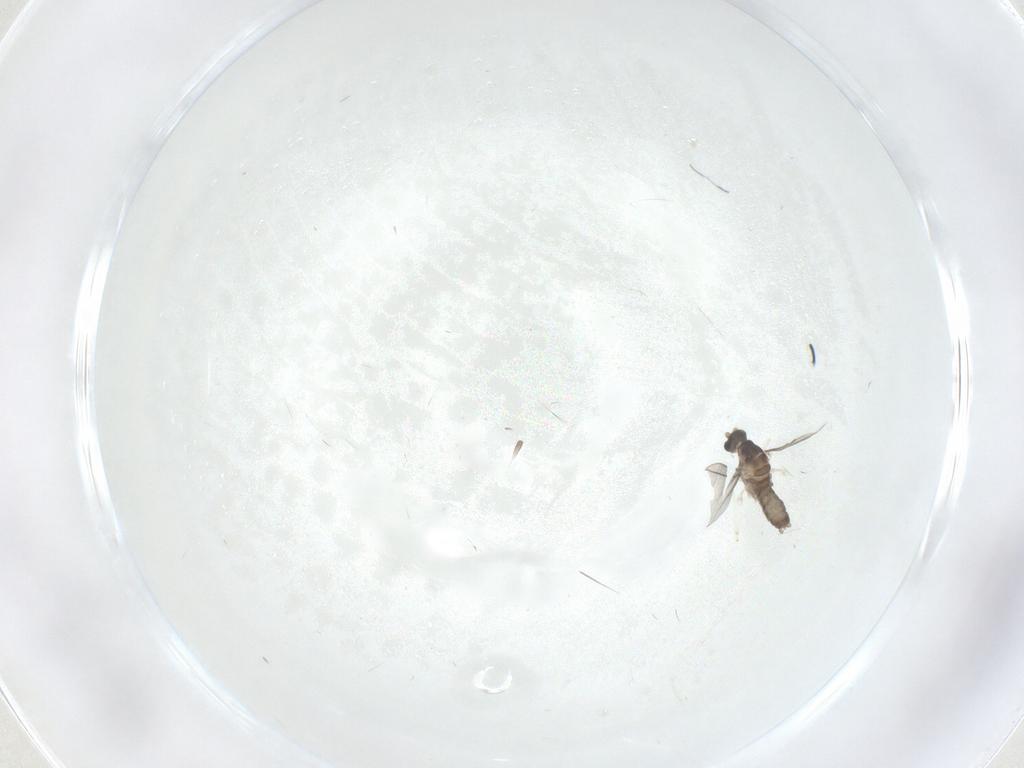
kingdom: Animalia
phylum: Arthropoda
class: Insecta
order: Diptera
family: Cecidomyiidae
